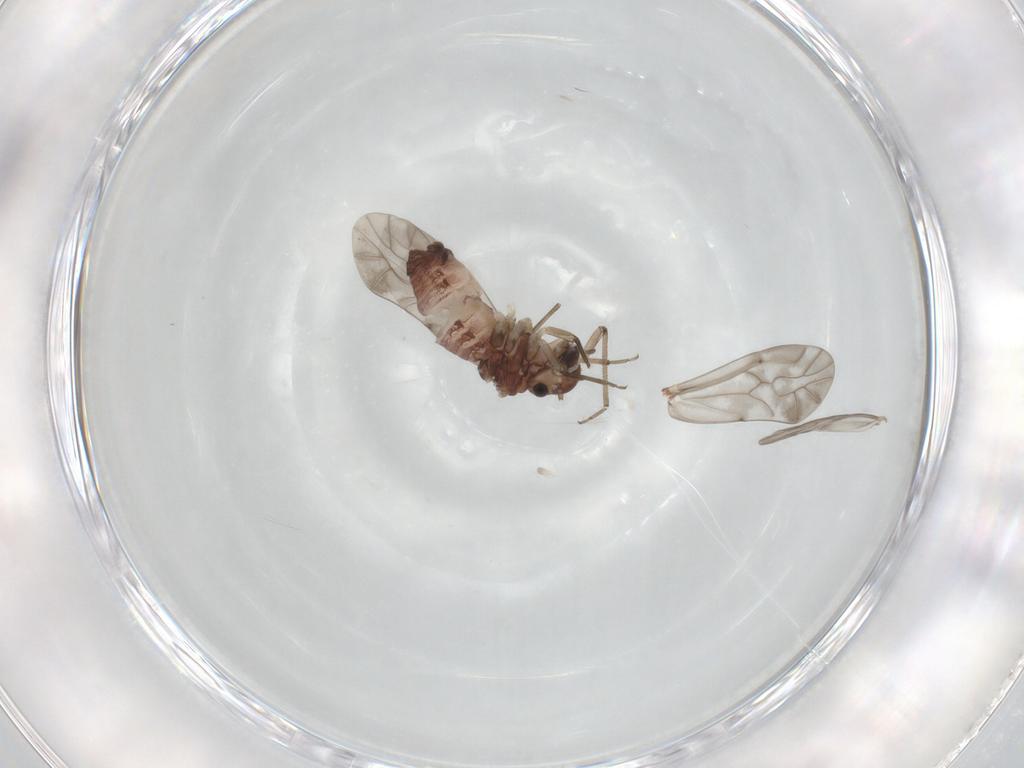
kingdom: Animalia
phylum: Arthropoda
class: Insecta
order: Psocodea
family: Peripsocidae
